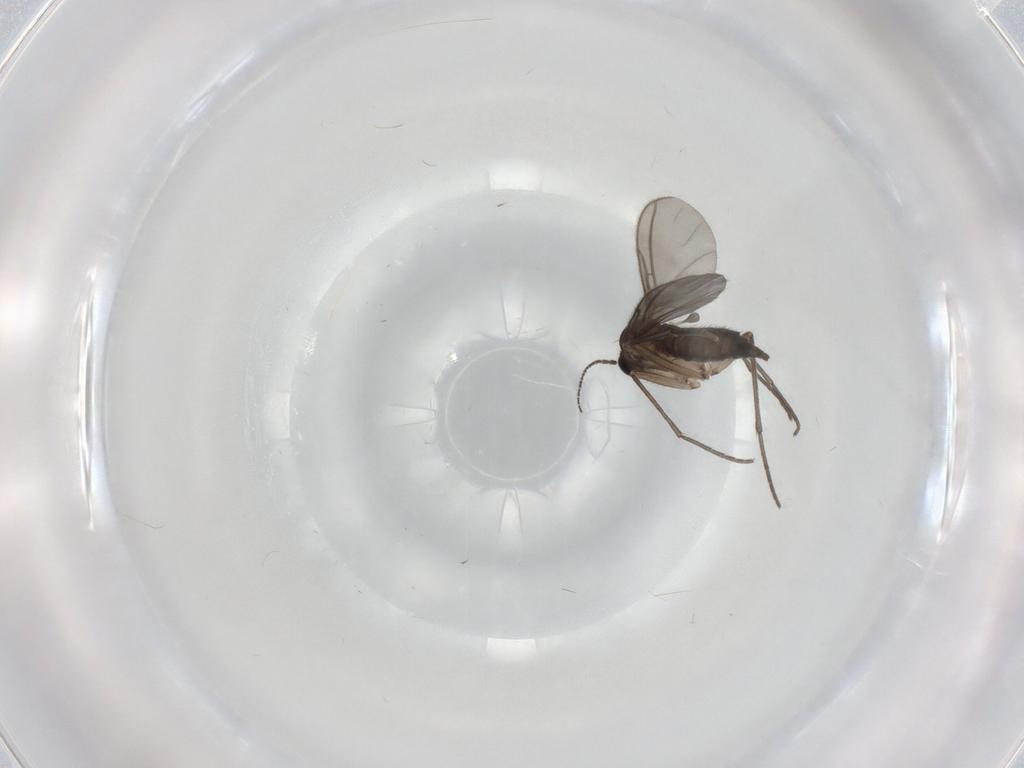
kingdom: Animalia
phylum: Arthropoda
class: Insecta
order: Diptera
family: Sciaridae
